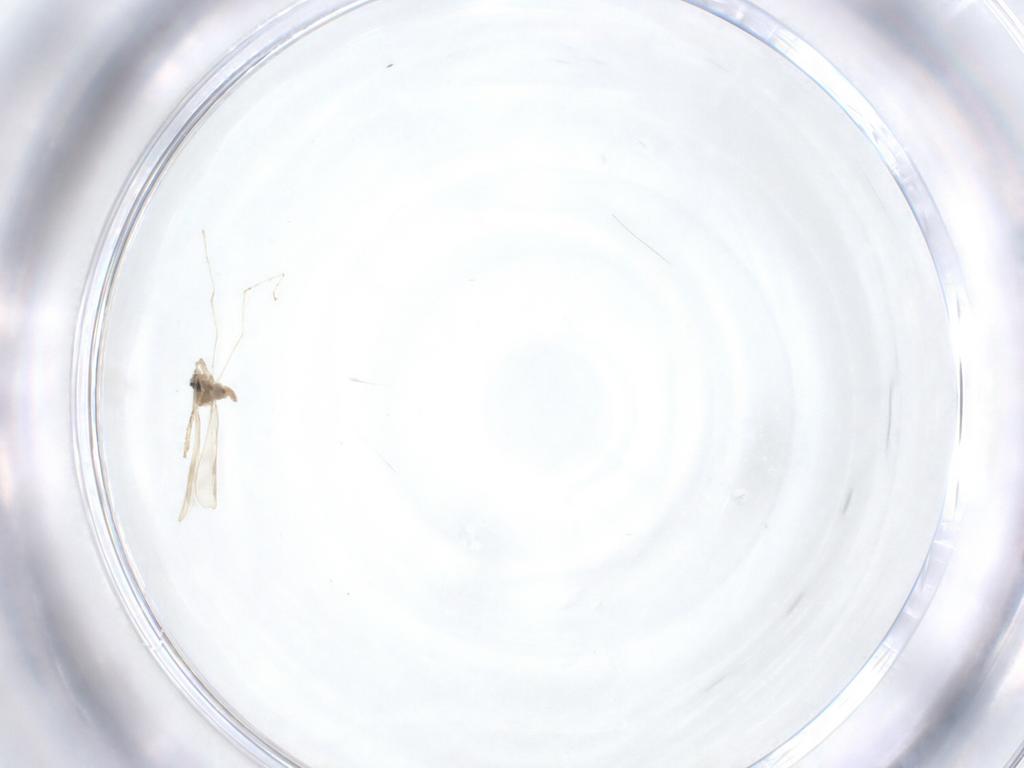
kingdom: Animalia
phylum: Arthropoda
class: Insecta
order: Diptera
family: Cecidomyiidae
